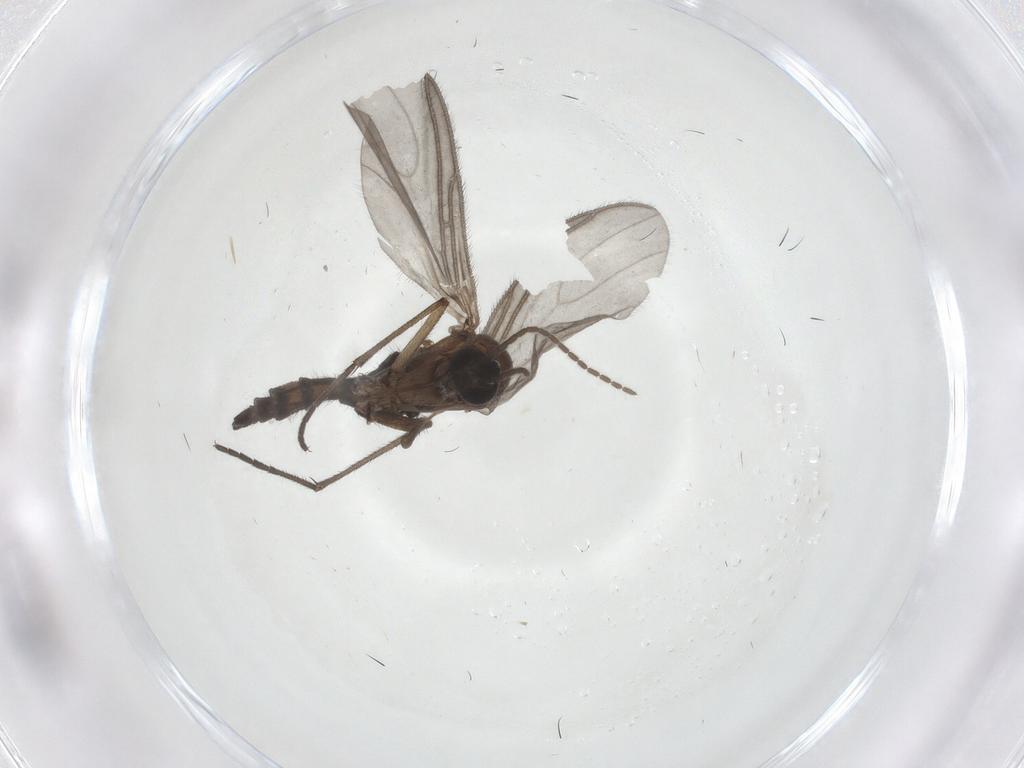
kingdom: Animalia
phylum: Arthropoda
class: Insecta
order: Diptera
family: Sciaridae
